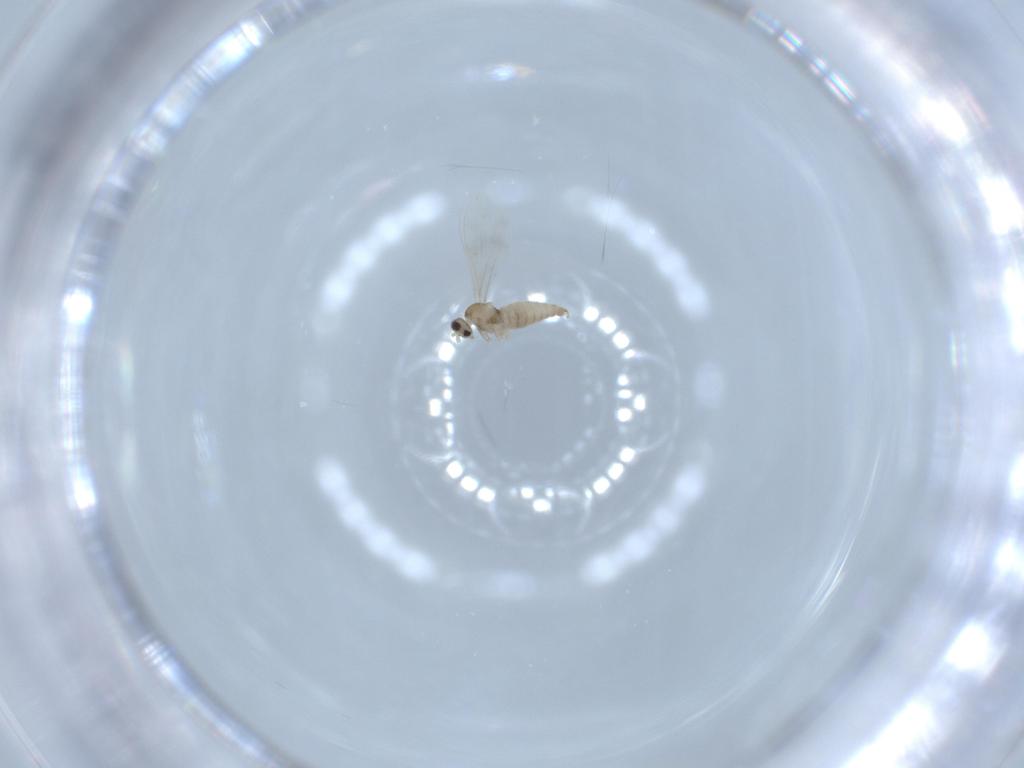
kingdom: Animalia
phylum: Arthropoda
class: Insecta
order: Diptera
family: Cecidomyiidae
